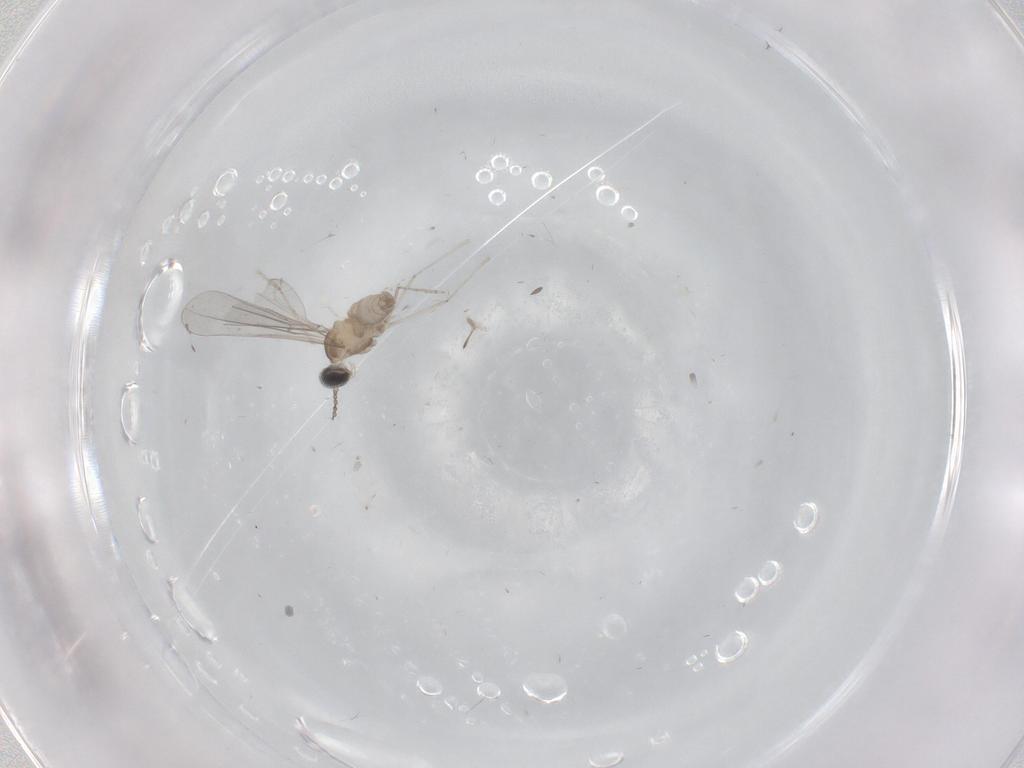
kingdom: Animalia
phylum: Arthropoda
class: Insecta
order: Diptera
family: Cecidomyiidae
